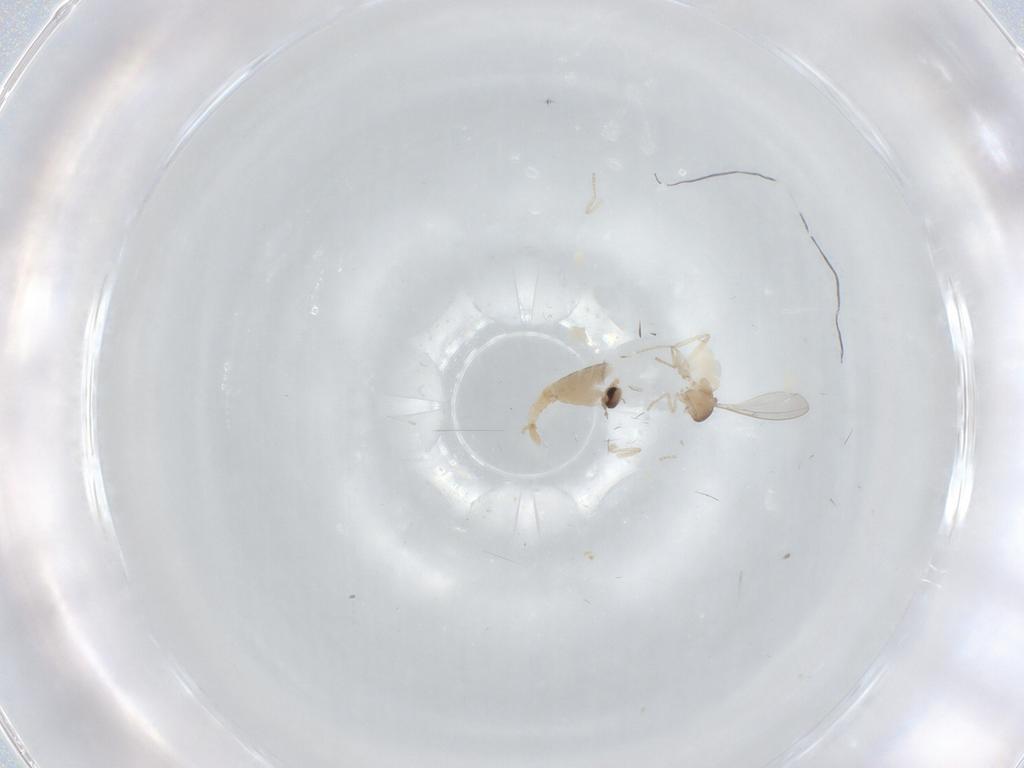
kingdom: Animalia
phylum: Arthropoda
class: Insecta
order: Diptera
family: Cecidomyiidae
